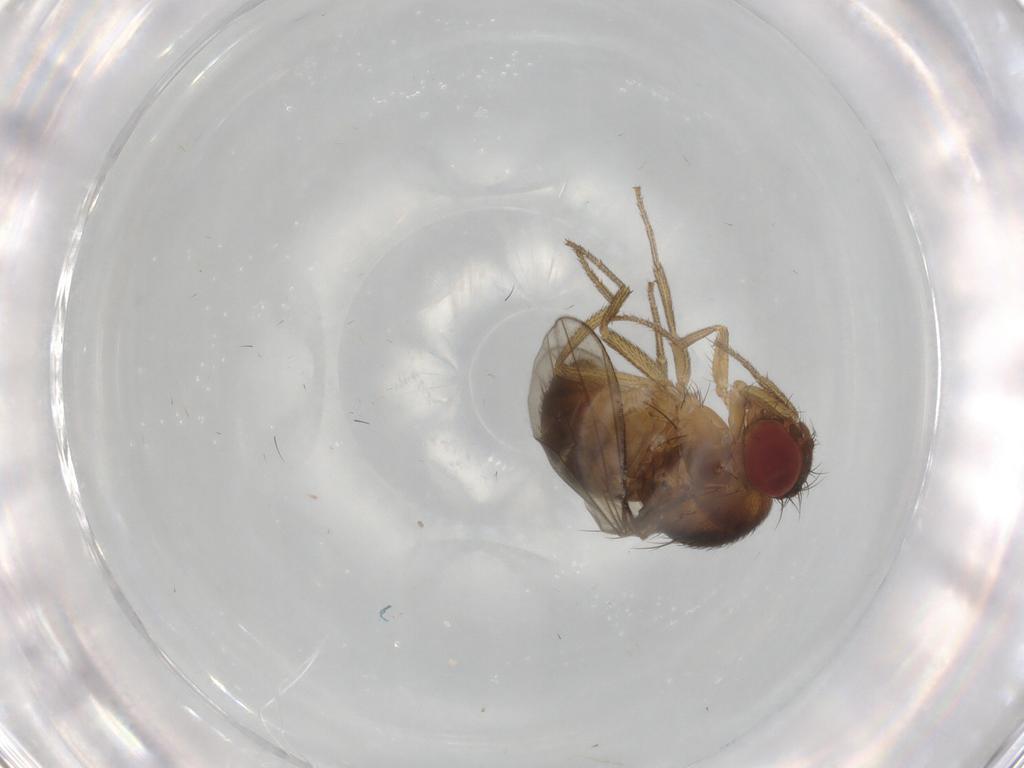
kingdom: Animalia
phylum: Arthropoda
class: Insecta
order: Diptera
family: Drosophilidae
